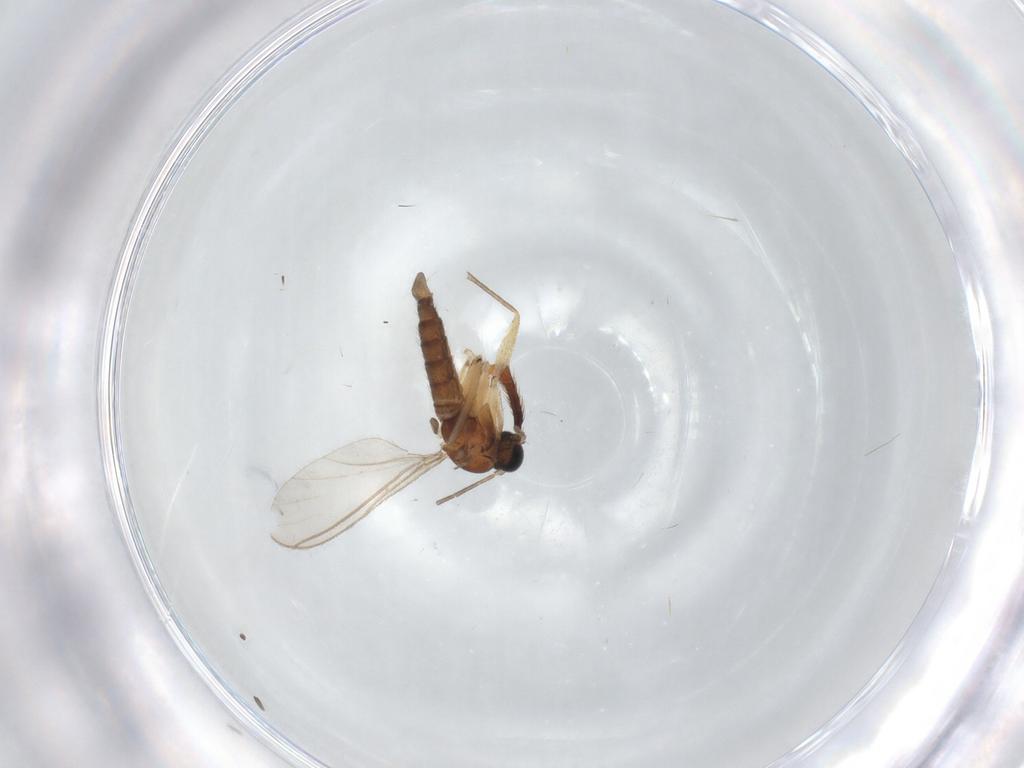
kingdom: Animalia
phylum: Arthropoda
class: Insecta
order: Diptera
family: Sciaridae
